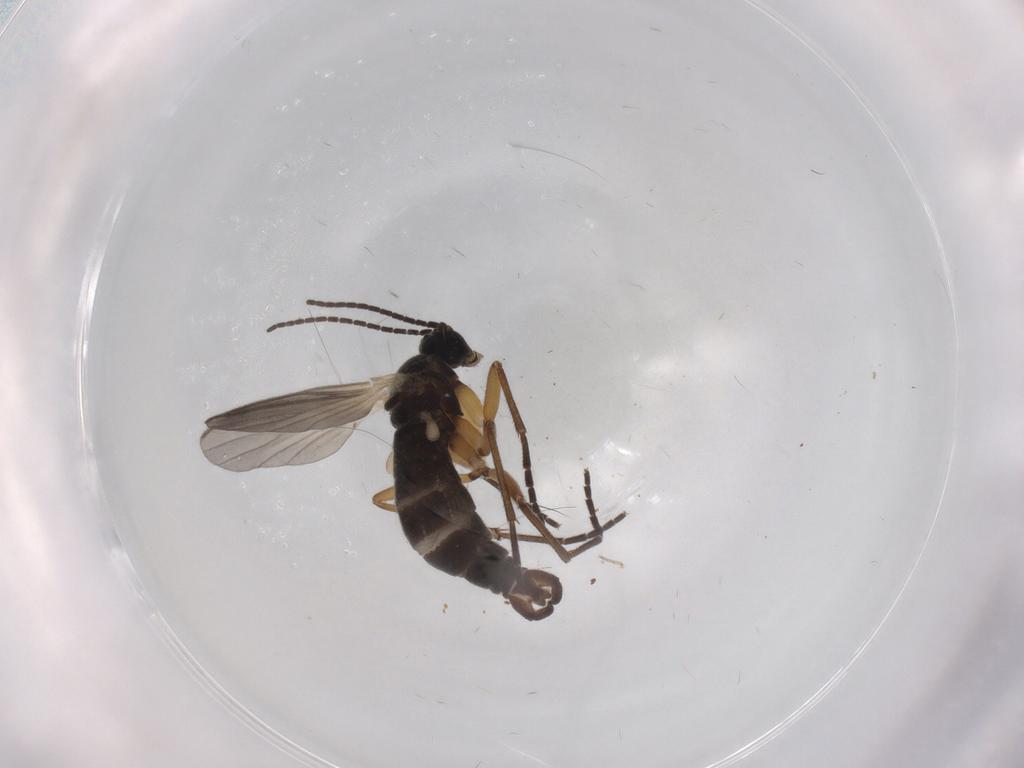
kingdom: Animalia
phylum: Arthropoda
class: Insecta
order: Diptera
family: Sciaridae
